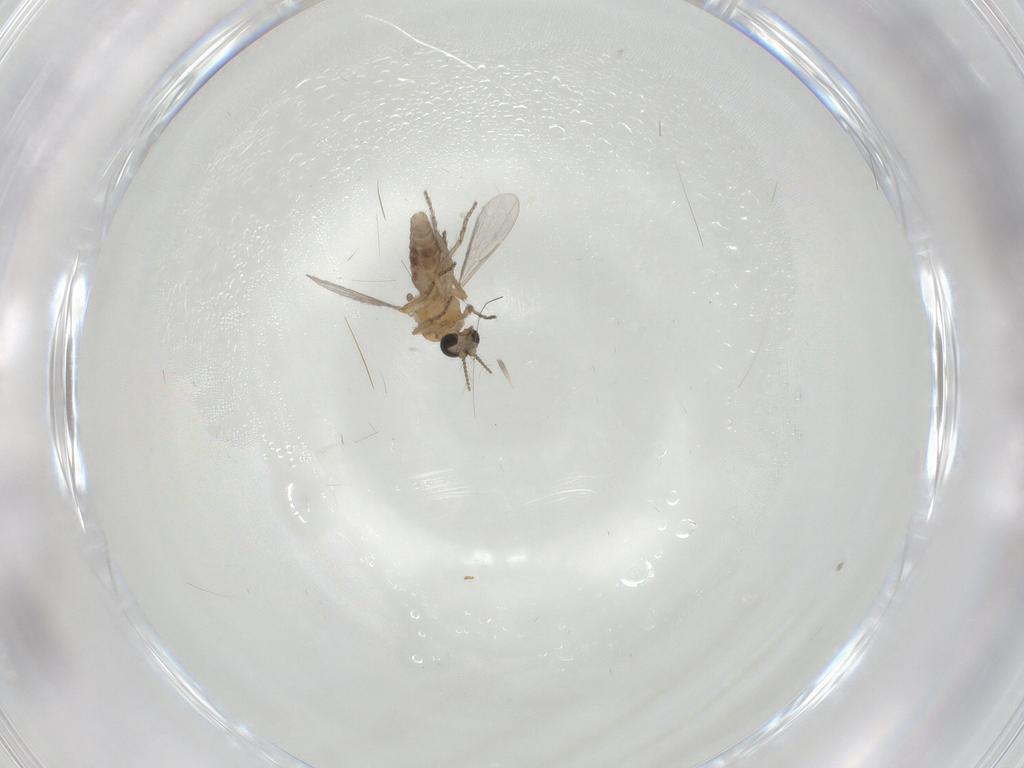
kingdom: Animalia
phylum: Arthropoda
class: Insecta
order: Diptera
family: Ceratopogonidae
